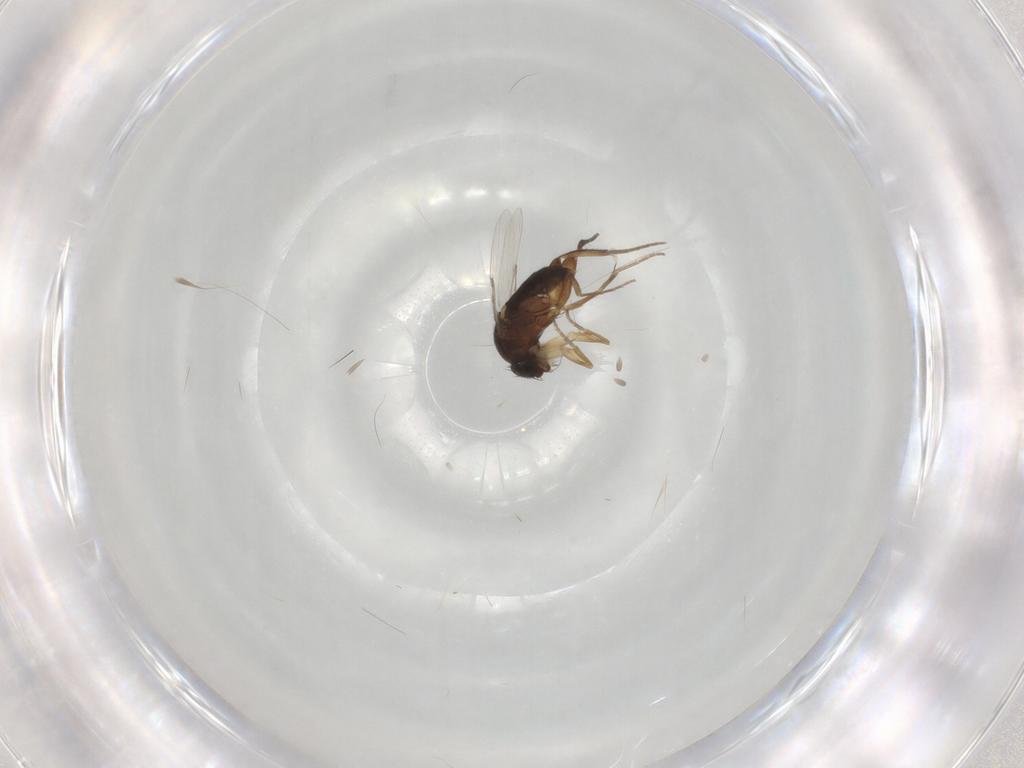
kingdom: Animalia
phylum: Arthropoda
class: Insecta
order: Diptera
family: Phoridae
